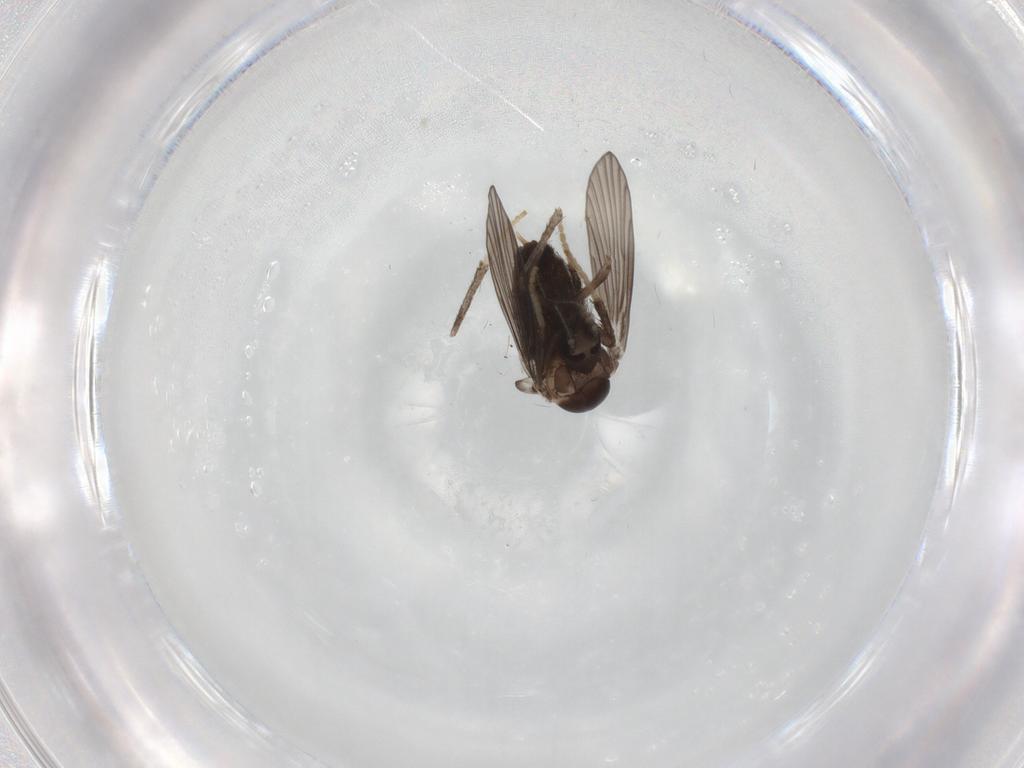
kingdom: Animalia
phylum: Arthropoda
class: Insecta
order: Diptera
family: Psychodidae
